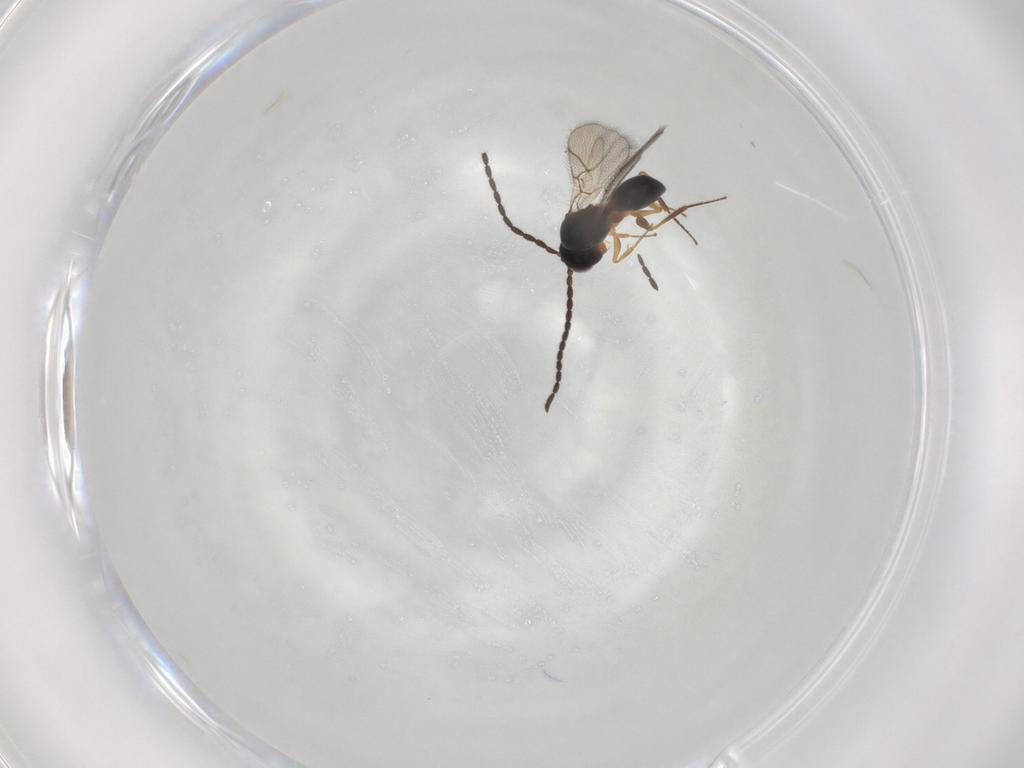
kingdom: Animalia
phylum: Arthropoda
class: Insecta
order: Hymenoptera
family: Figitidae
